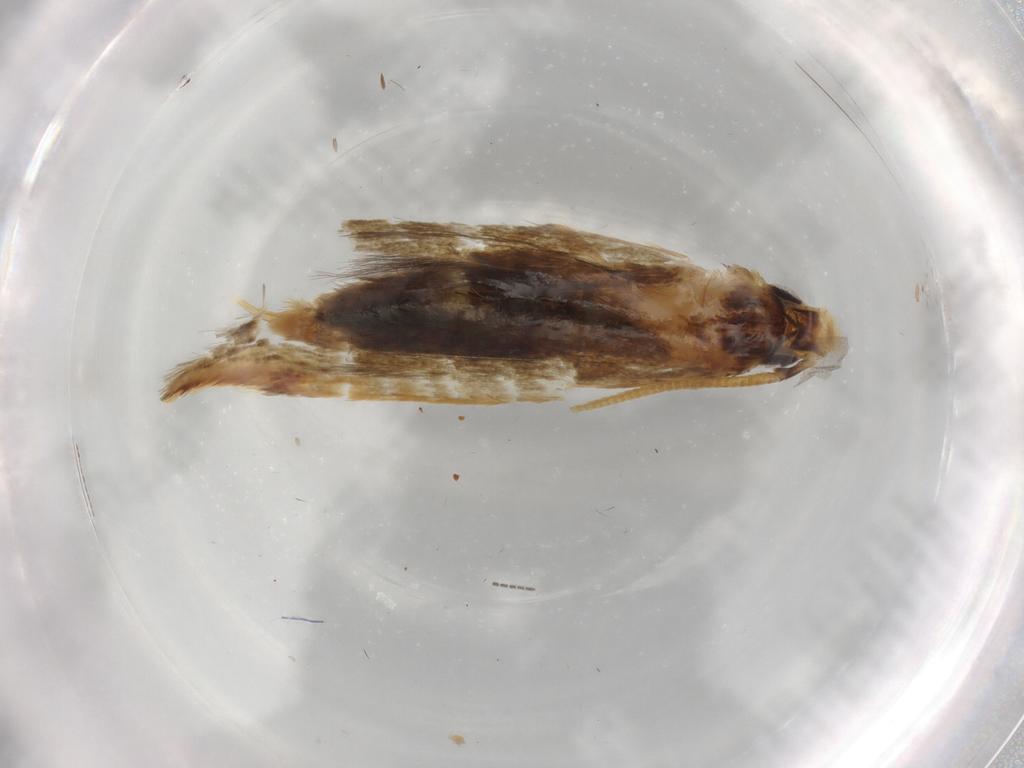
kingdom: Animalia
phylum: Arthropoda
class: Insecta
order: Lepidoptera
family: Tineidae
